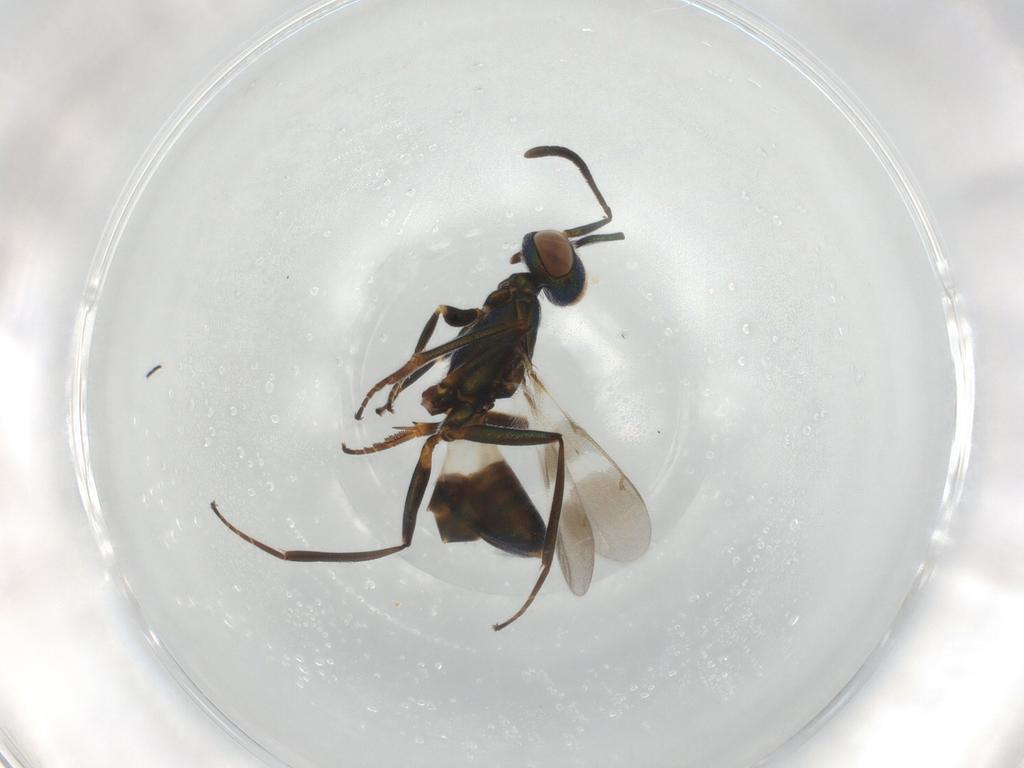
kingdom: Animalia
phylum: Arthropoda
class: Insecta
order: Hymenoptera
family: Eupelmidae
